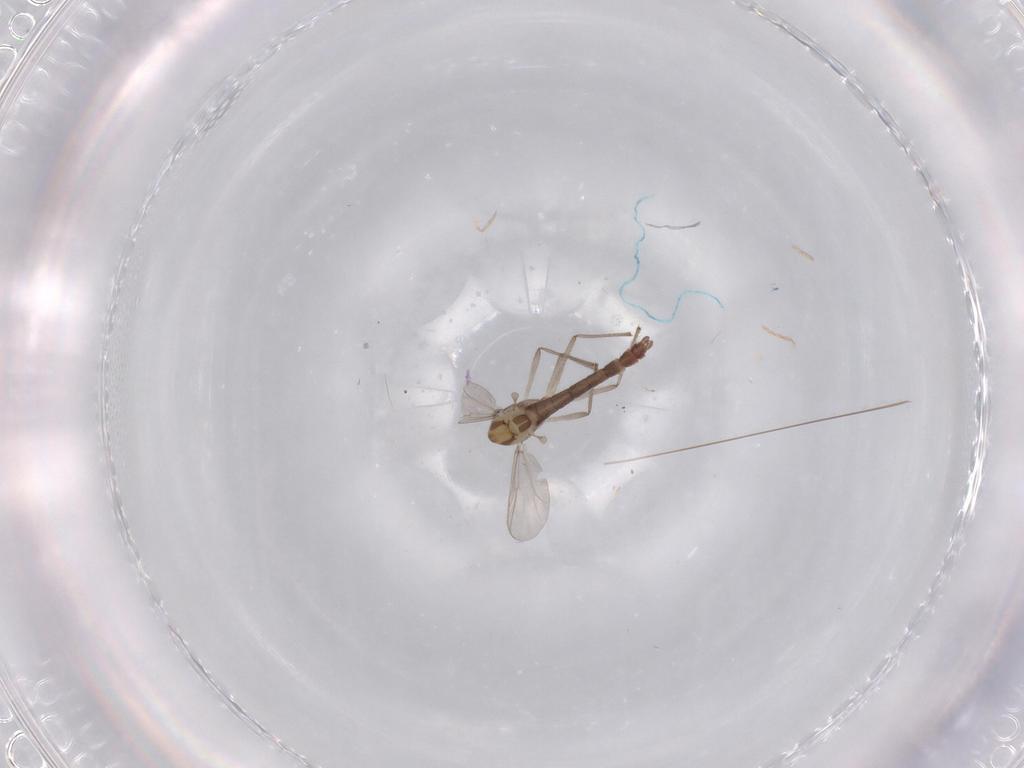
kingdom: Animalia
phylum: Arthropoda
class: Insecta
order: Diptera
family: Chironomidae
